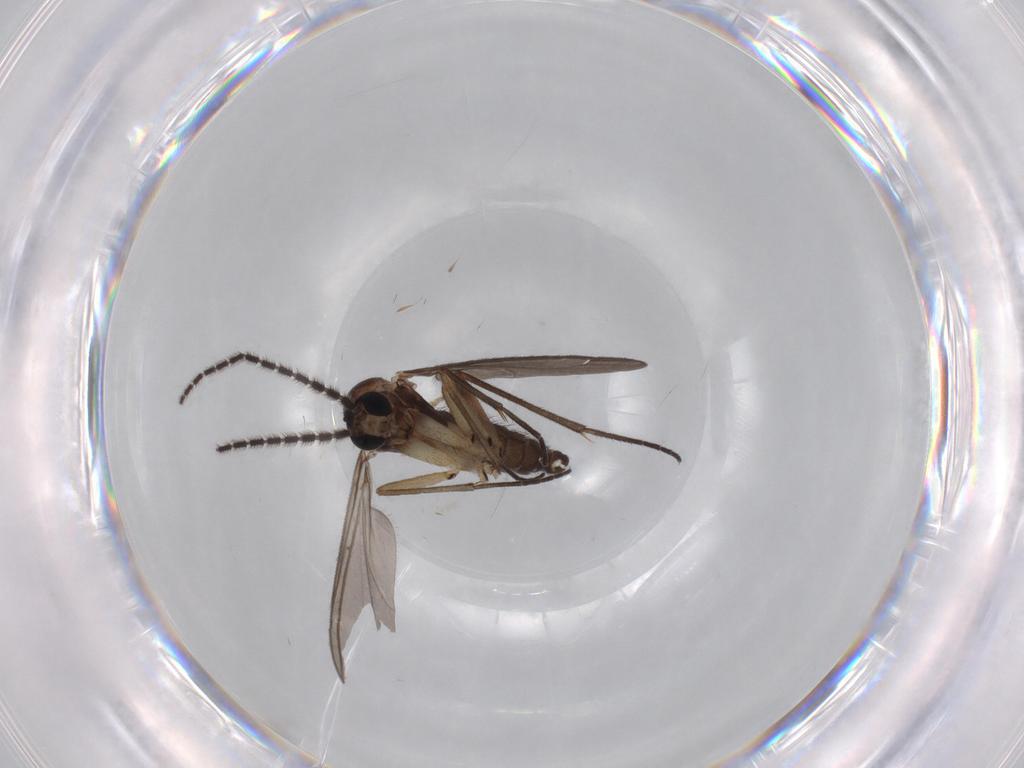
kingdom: Animalia
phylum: Arthropoda
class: Insecta
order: Diptera
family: Sciaridae
